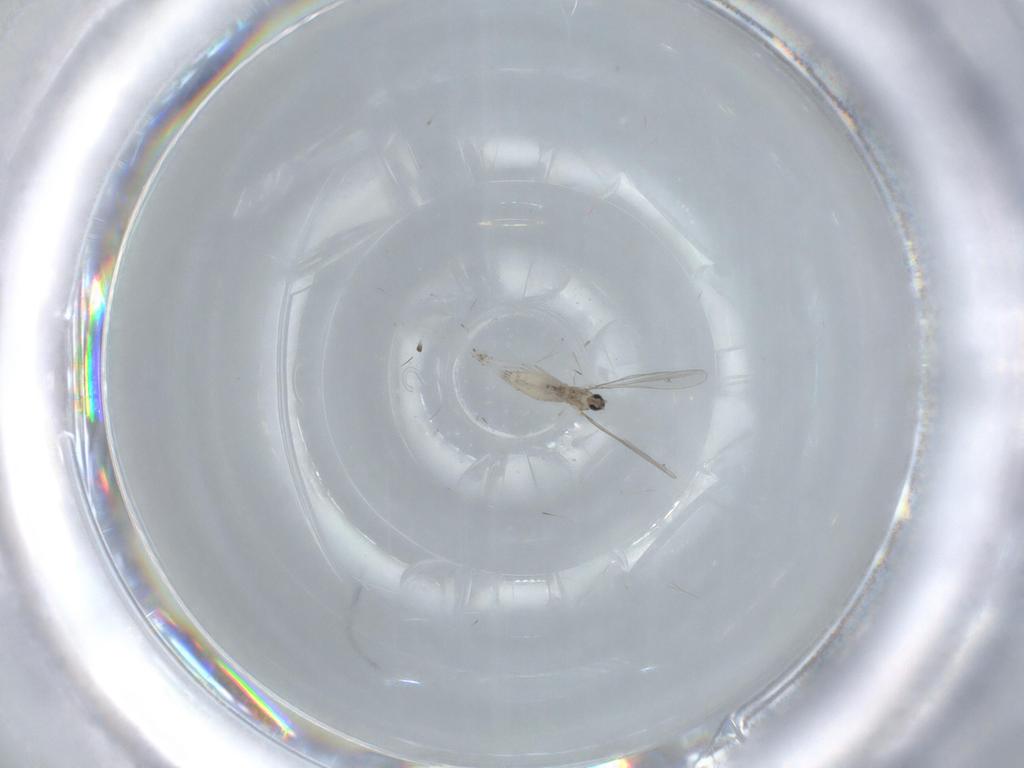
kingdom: Animalia
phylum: Arthropoda
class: Insecta
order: Diptera
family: Cecidomyiidae
